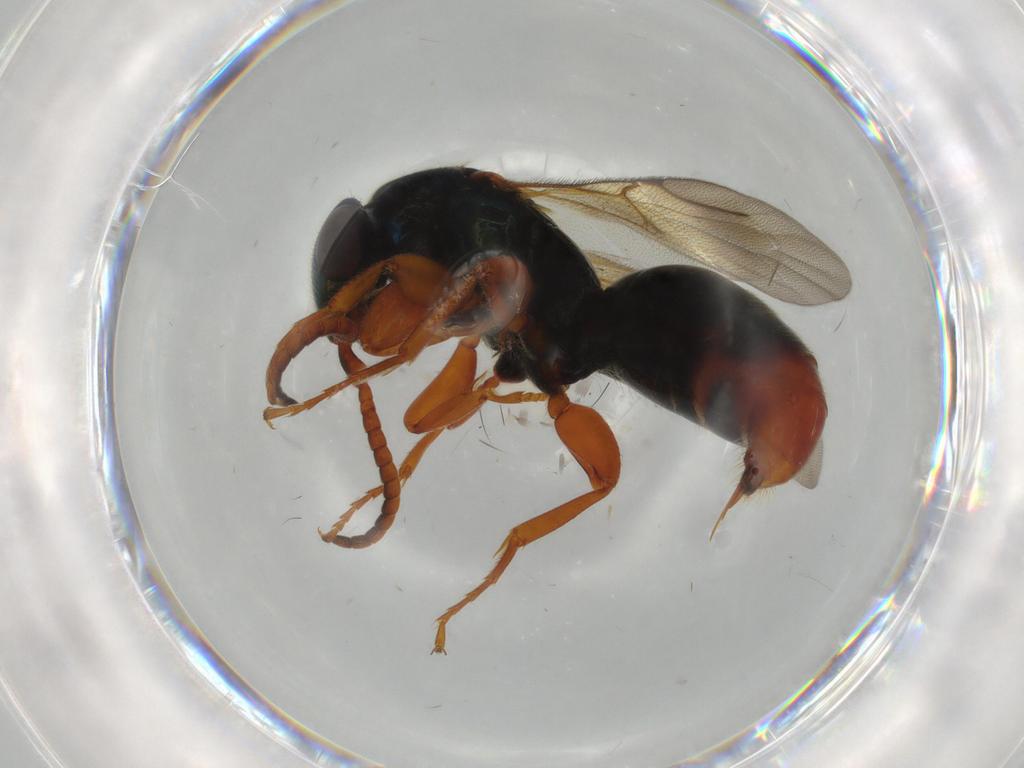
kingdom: Animalia
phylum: Arthropoda
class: Insecta
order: Hymenoptera
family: Bethylidae
